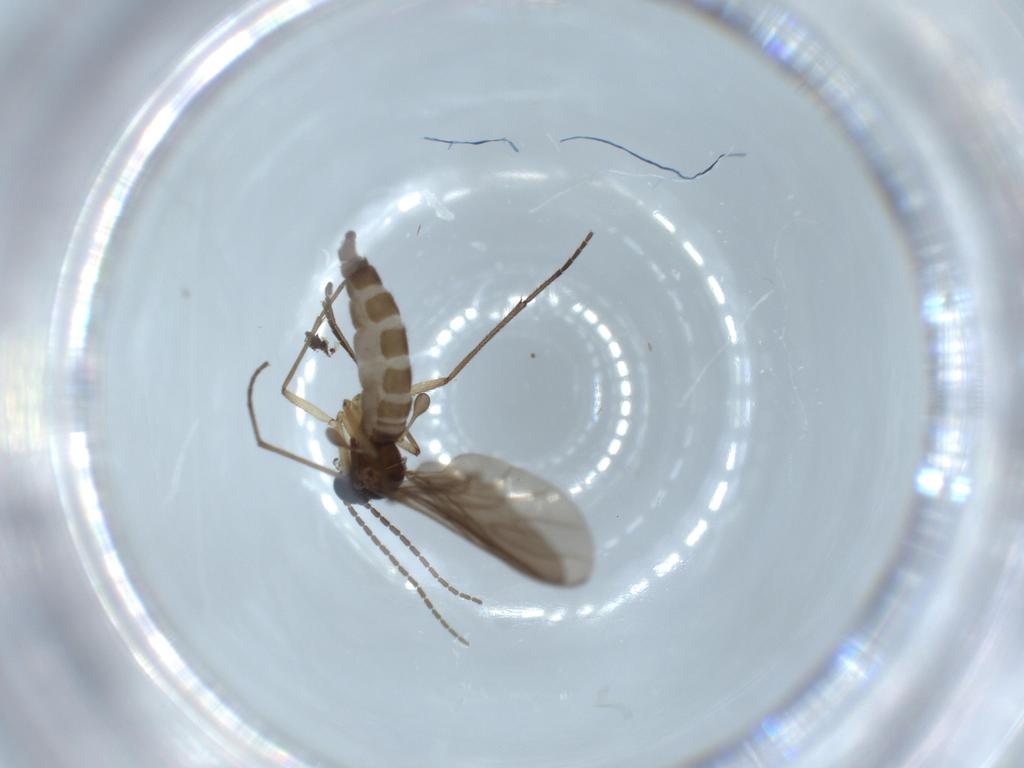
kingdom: Animalia
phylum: Arthropoda
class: Insecta
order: Diptera
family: Sciaridae
